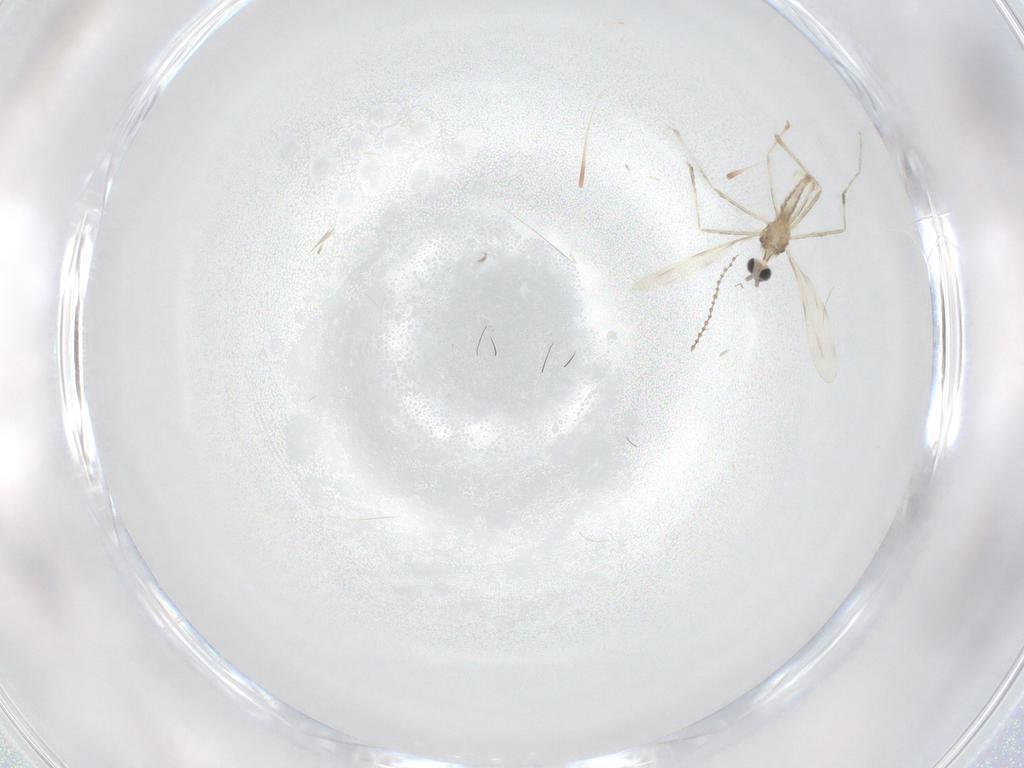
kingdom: Animalia
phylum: Arthropoda
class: Insecta
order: Diptera
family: Cecidomyiidae
